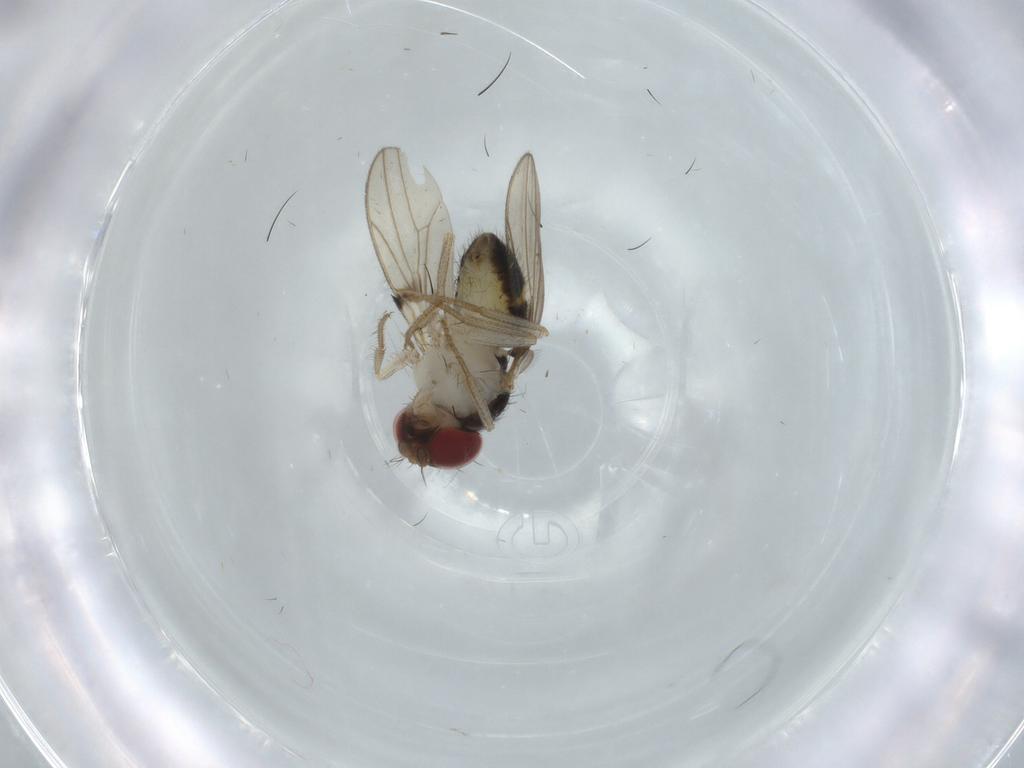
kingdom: Animalia
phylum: Arthropoda
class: Insecta
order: Diptera
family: Drosophilidae
